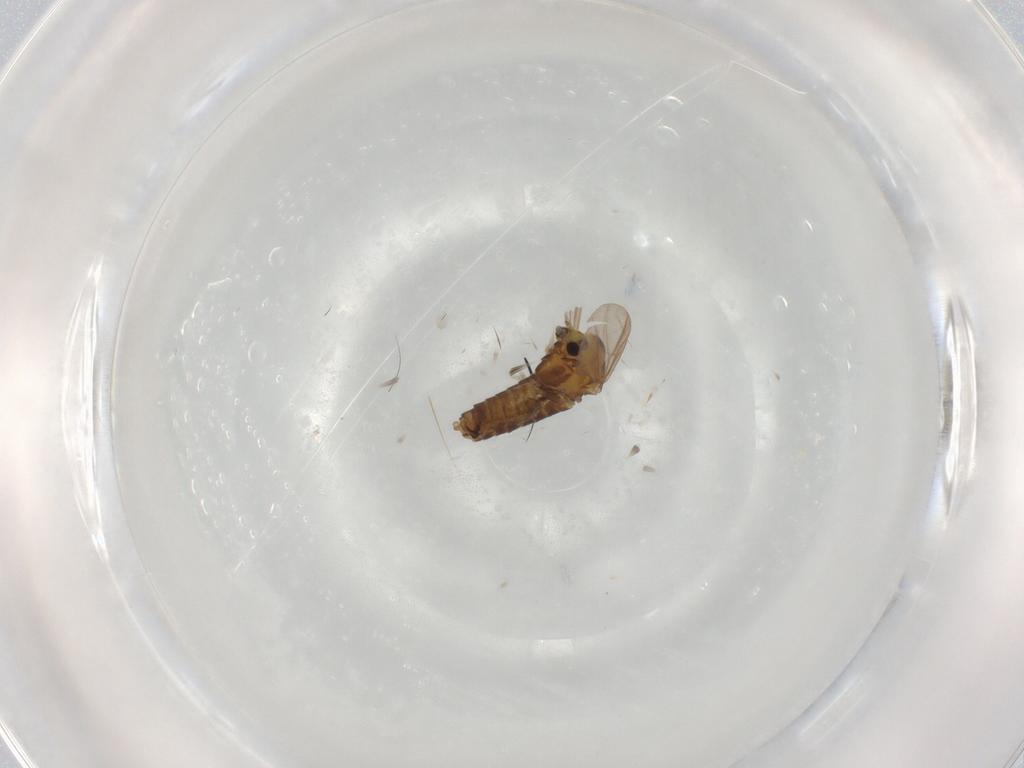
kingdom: Animalia
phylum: Arthropoda
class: Insecta
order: Diptera
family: Chironomidae
